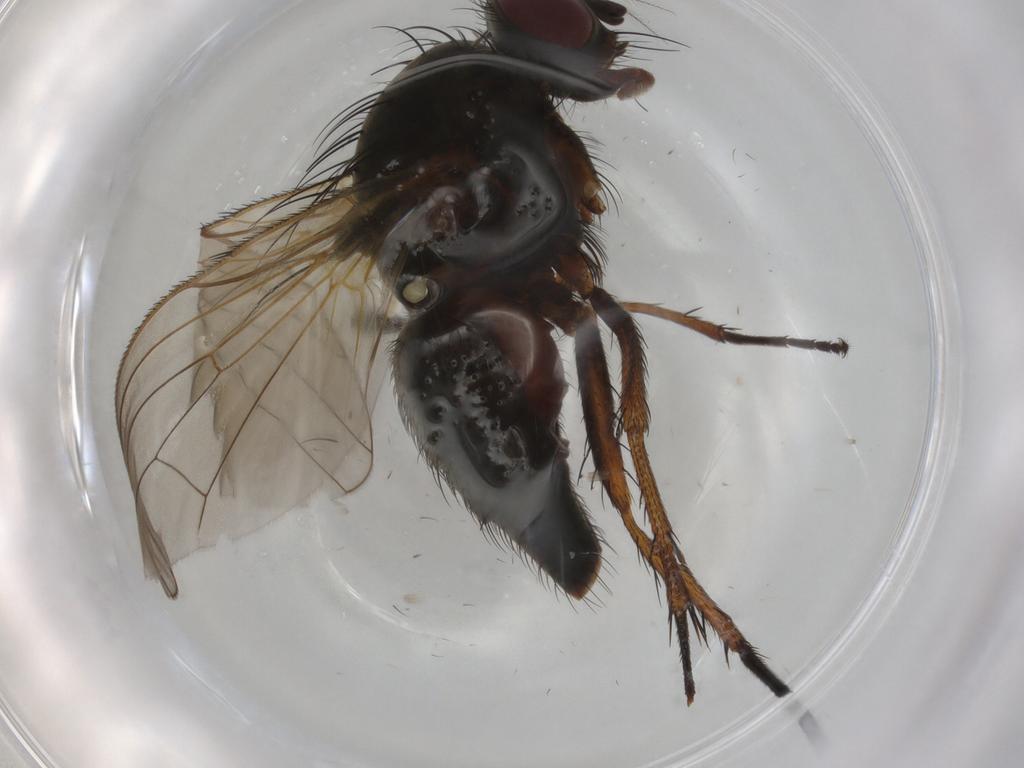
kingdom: Animalia
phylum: Arthropoda
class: Insecta
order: Diptera
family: Anthomyiidae
